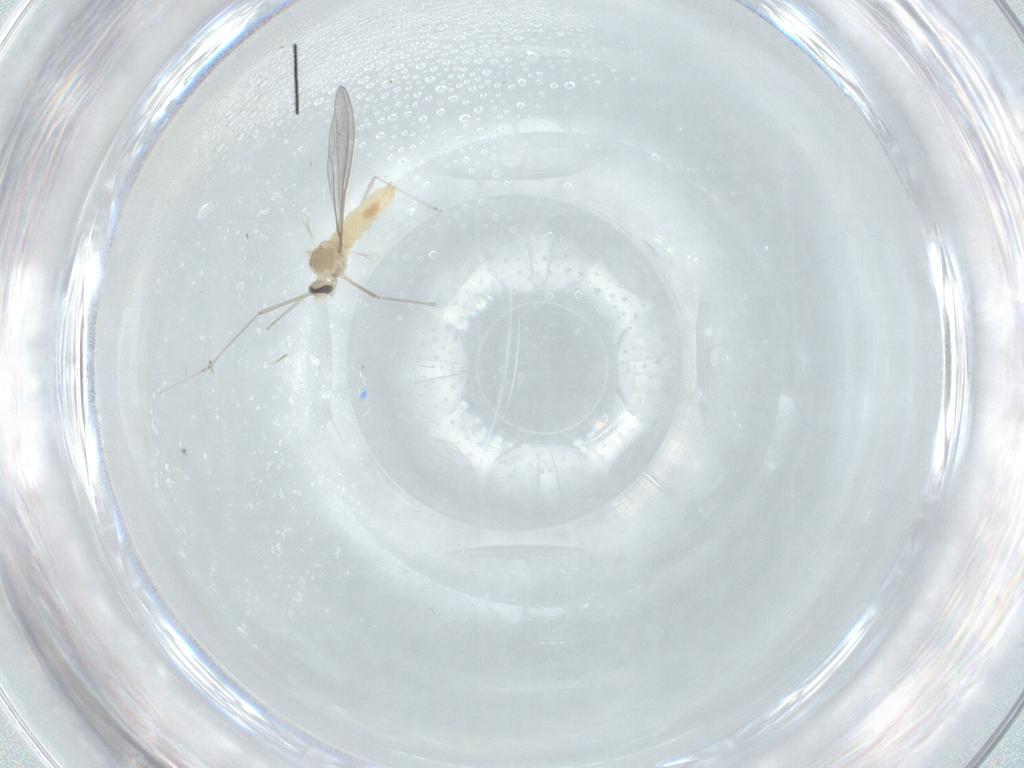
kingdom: Animalia
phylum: Arthropoda
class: Insecta
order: Diptera
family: Cecidomyiidae
